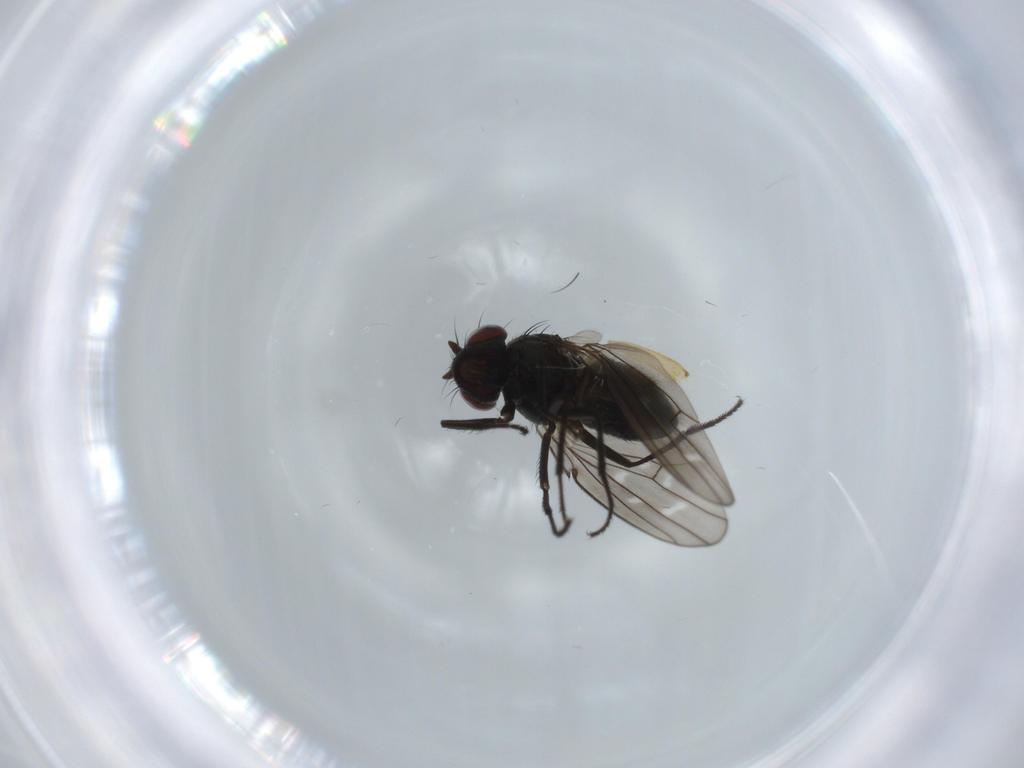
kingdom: Animalia
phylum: Arthropoda
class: Insecta
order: Diptera
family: Ephydridae
